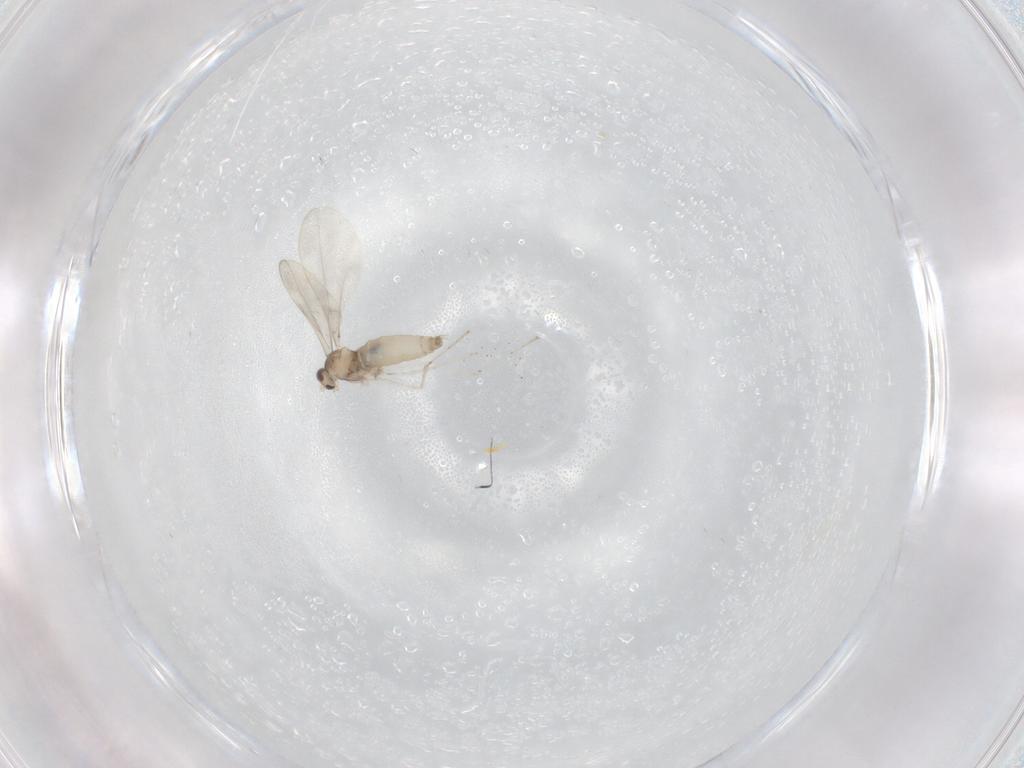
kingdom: Animalia
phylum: Arthropoda
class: Insecta
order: Diptera
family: Cecidomyiidae
